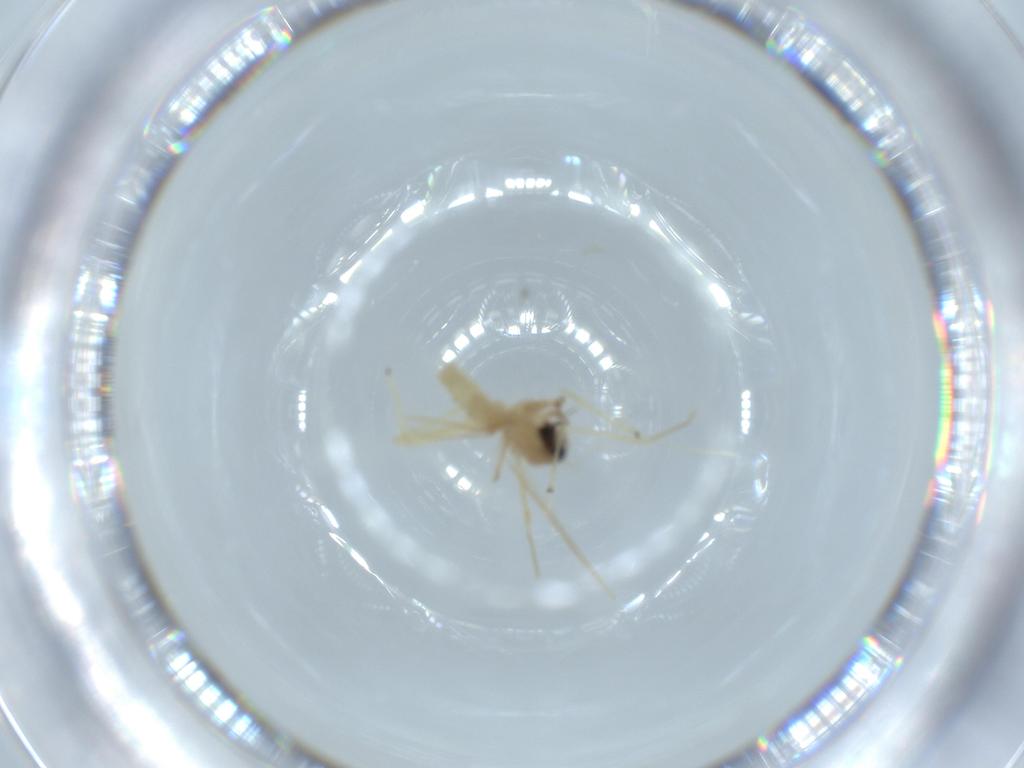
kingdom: Animalia
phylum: Arthropoda
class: Insecta
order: Diptera
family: Chironomidae
